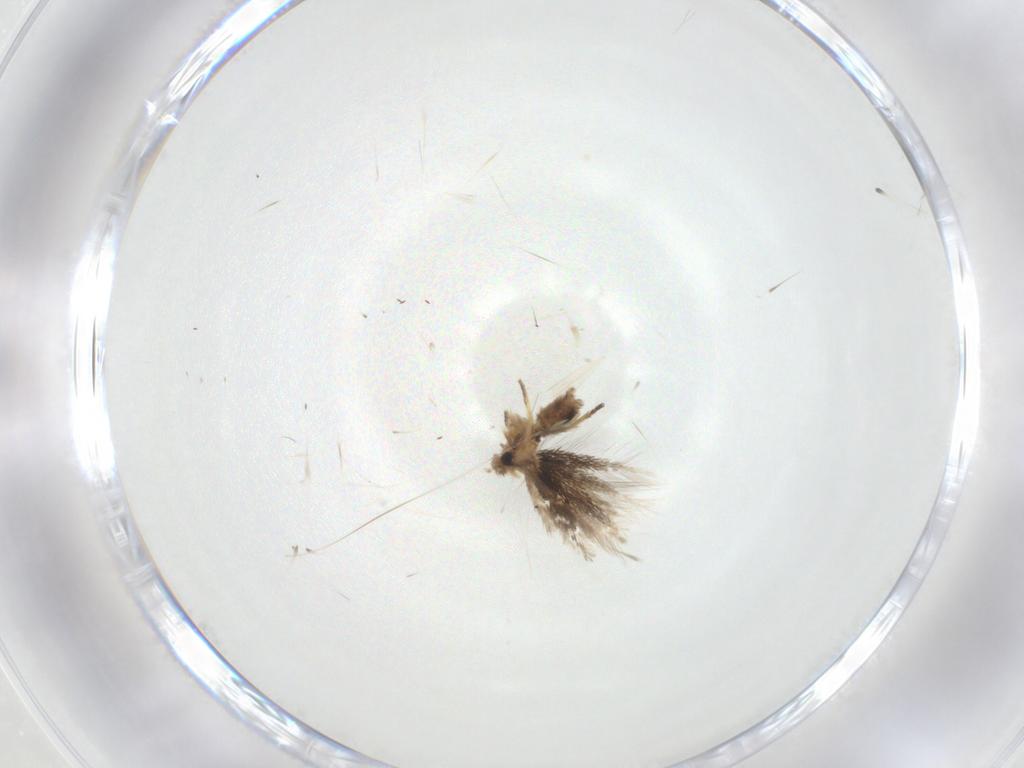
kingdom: Animalia
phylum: Arthropoda
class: Insecta
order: Lepidoptera
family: Nepticulidae
